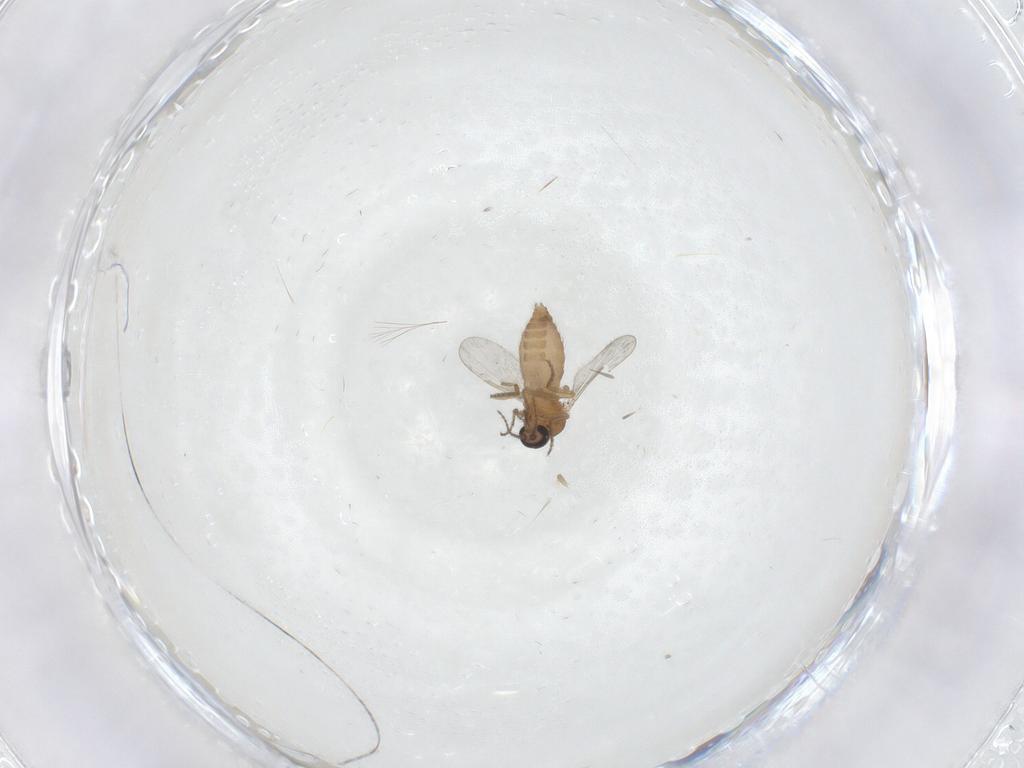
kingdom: Animalia
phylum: Arthropoda
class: Insecta
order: Diptera
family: Ceratopogonidae
